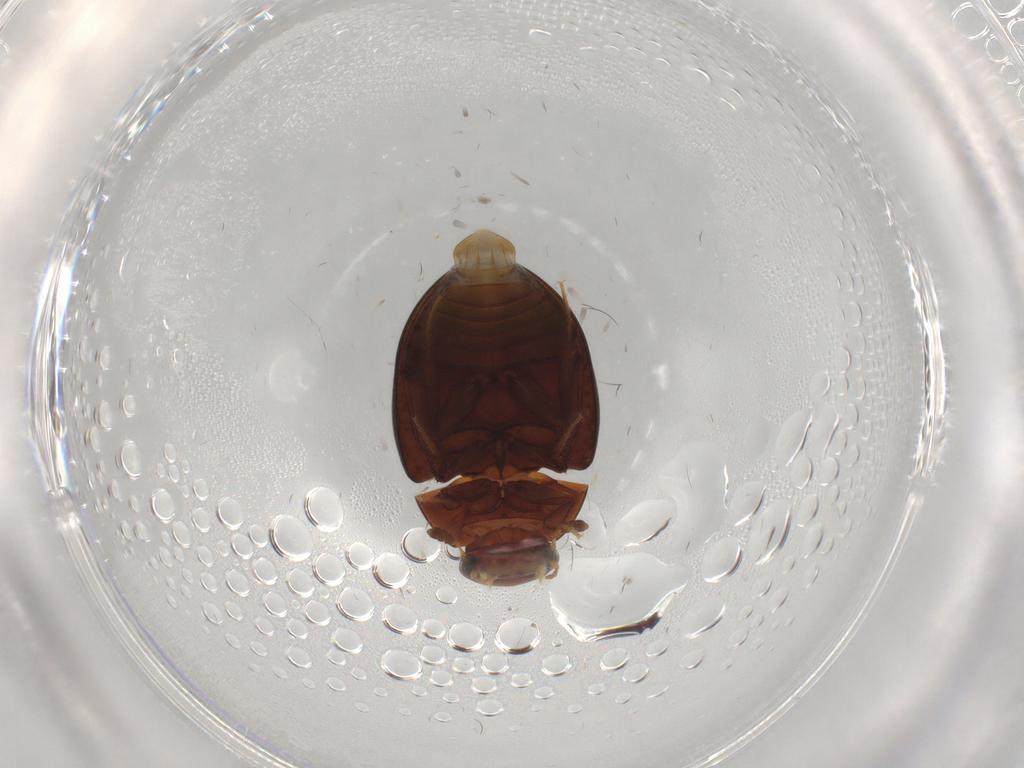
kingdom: Animalia
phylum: Arthropoda
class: Insecta
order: Coleoptera
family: Hydrophilidae
